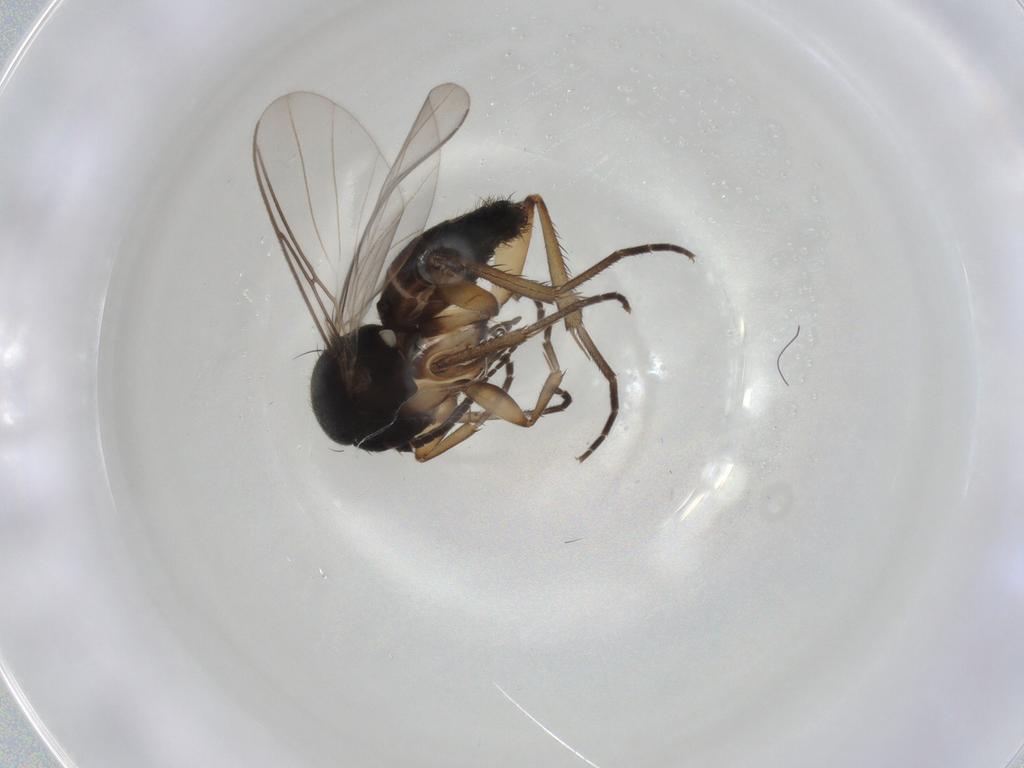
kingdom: Animalia
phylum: Arthropoda
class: Insecta
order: Diptera
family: Mycetophilidae
